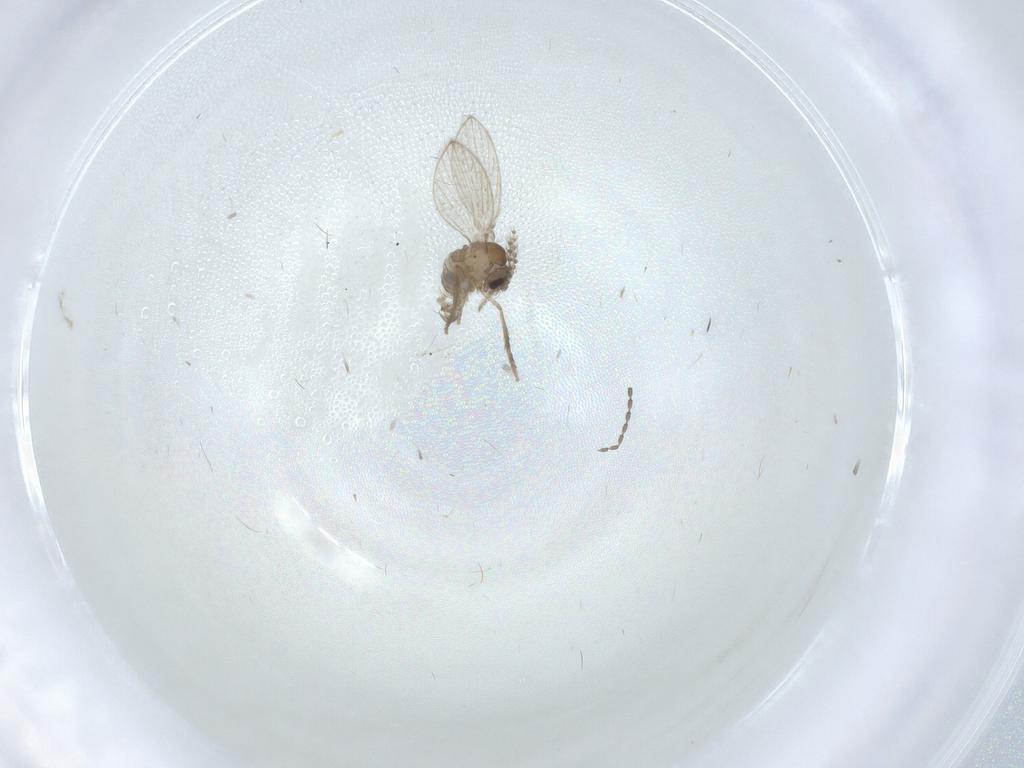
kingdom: Animalia
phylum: Arthropoda
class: Insecta
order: Diptera
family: Psychodidae
